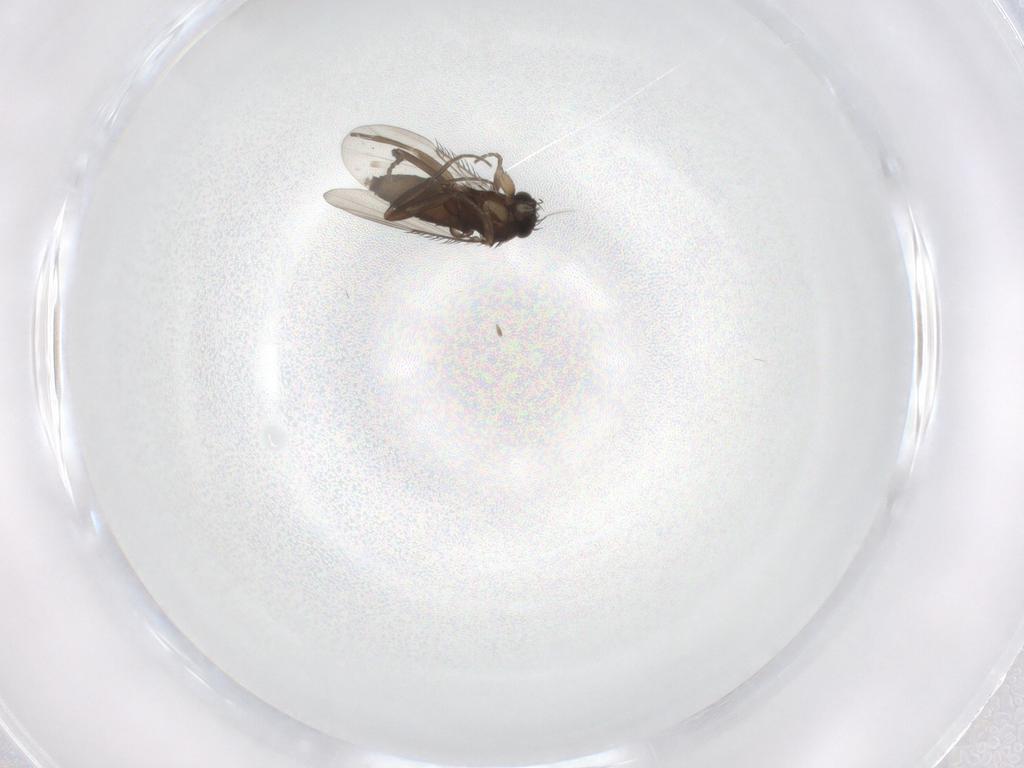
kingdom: Animalia
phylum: Arthropoda
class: Insecta
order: Diptera
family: Phoridae
